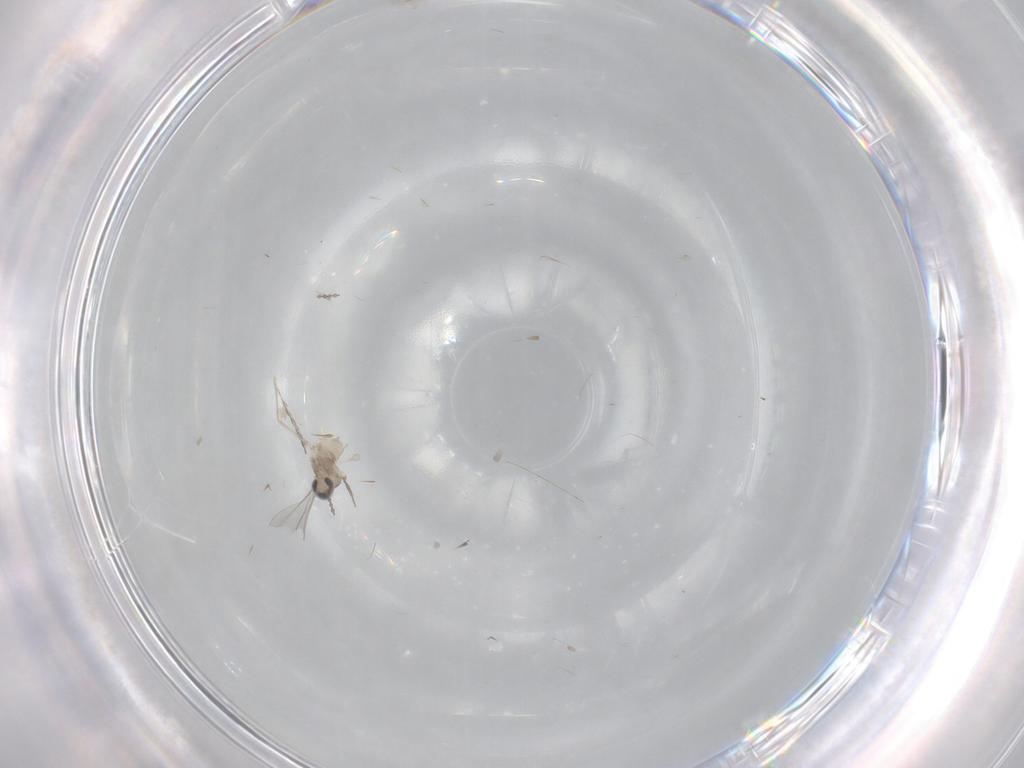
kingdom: Animalia
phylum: Arthropoda
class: Insecta
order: Diptera
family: Cecidomyiidae
